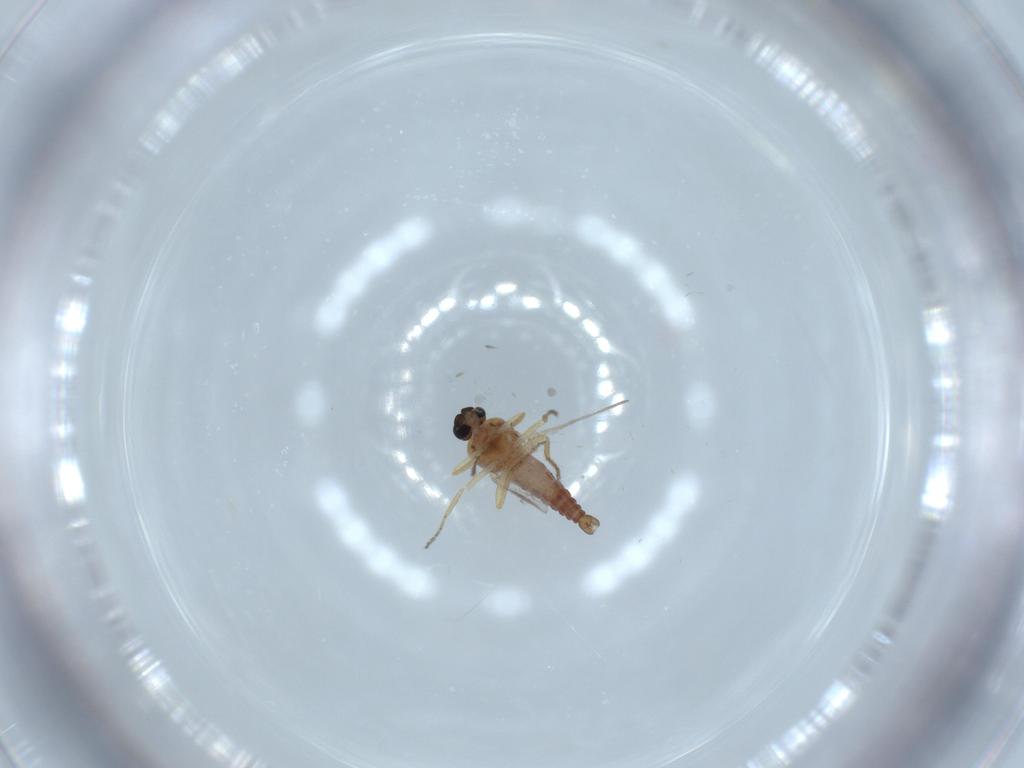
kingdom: Animalia
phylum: Arthropoda
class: Insecta
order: Diptera
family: Ceratopogonidae
